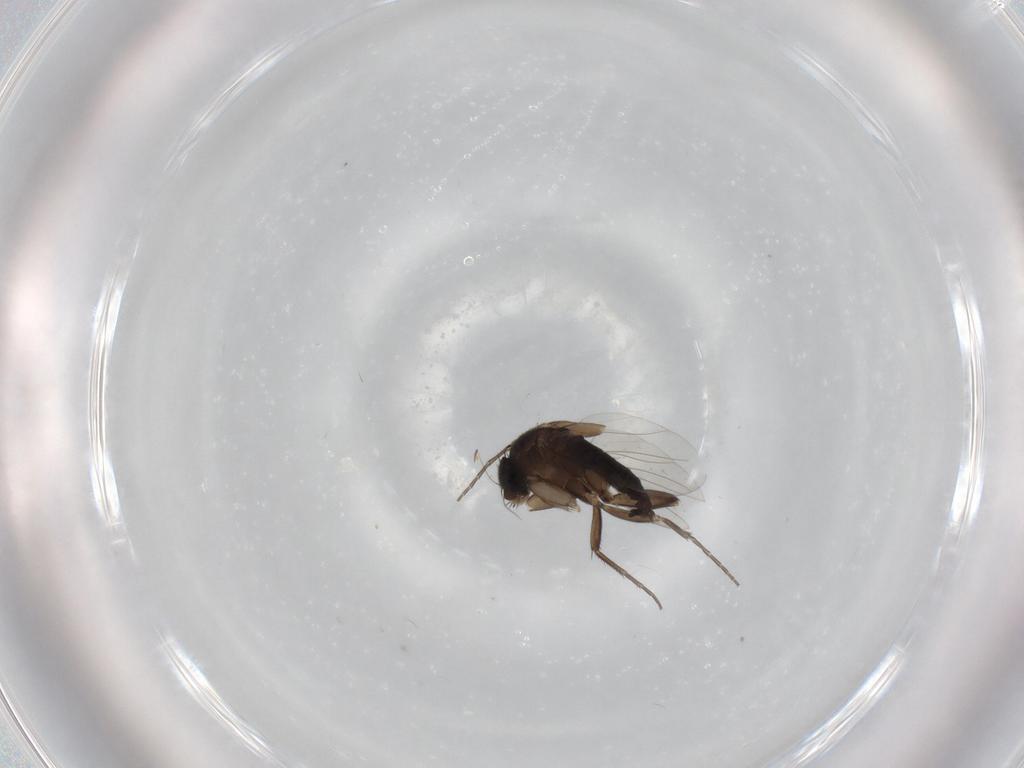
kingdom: Animalia
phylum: Arthropoda
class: Insecta
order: Diptera
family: Phoridae
